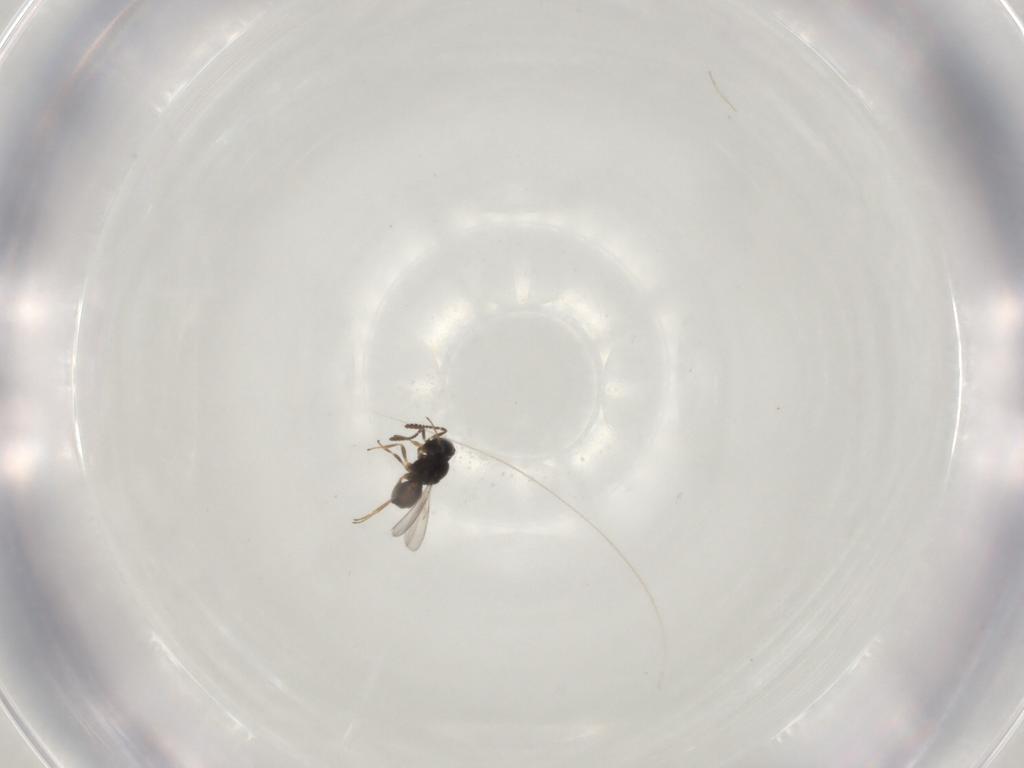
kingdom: Animalia
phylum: Arthropoda
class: Insecta
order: Hymenoptera
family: Scelionidae
